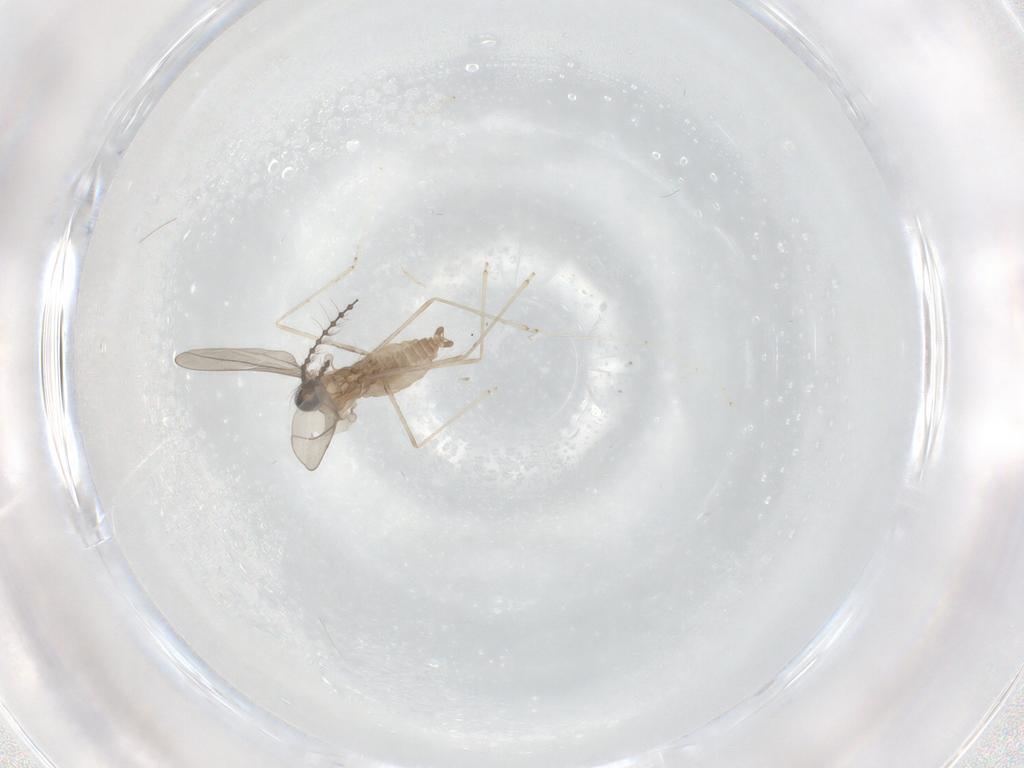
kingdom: Animalia
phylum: Arthropoda
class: Insecta
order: Diptera
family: Cecidomyiidae
